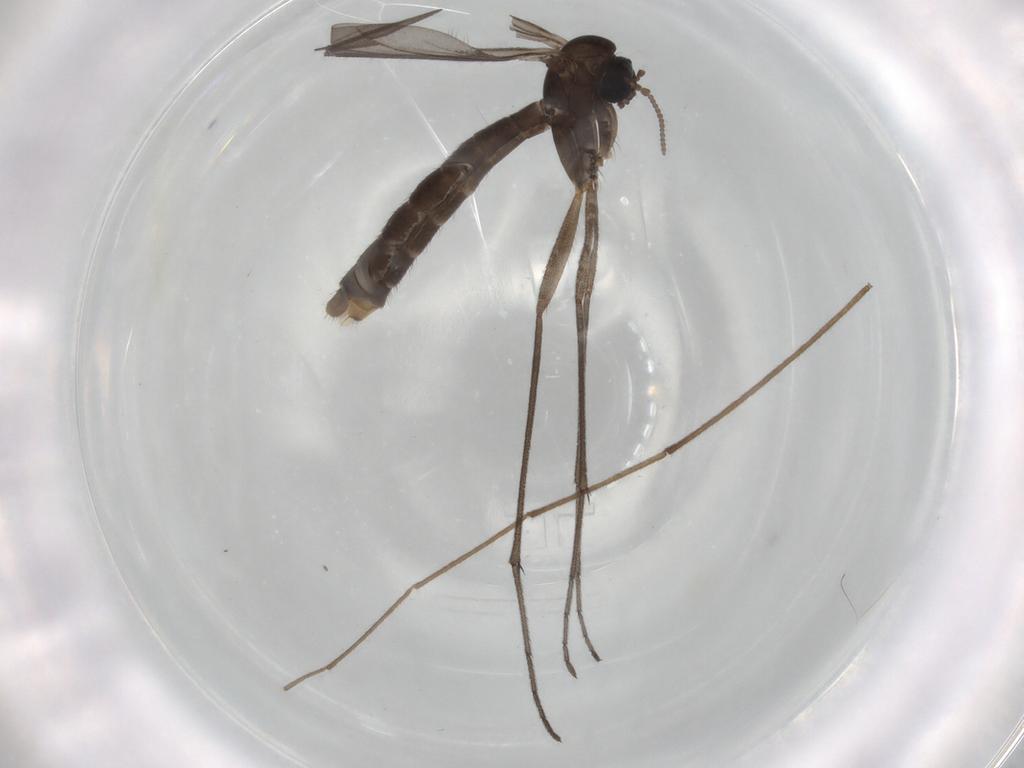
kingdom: Animalia
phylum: Arthropoda
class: Insecta
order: Diptera
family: Keroplatidae
